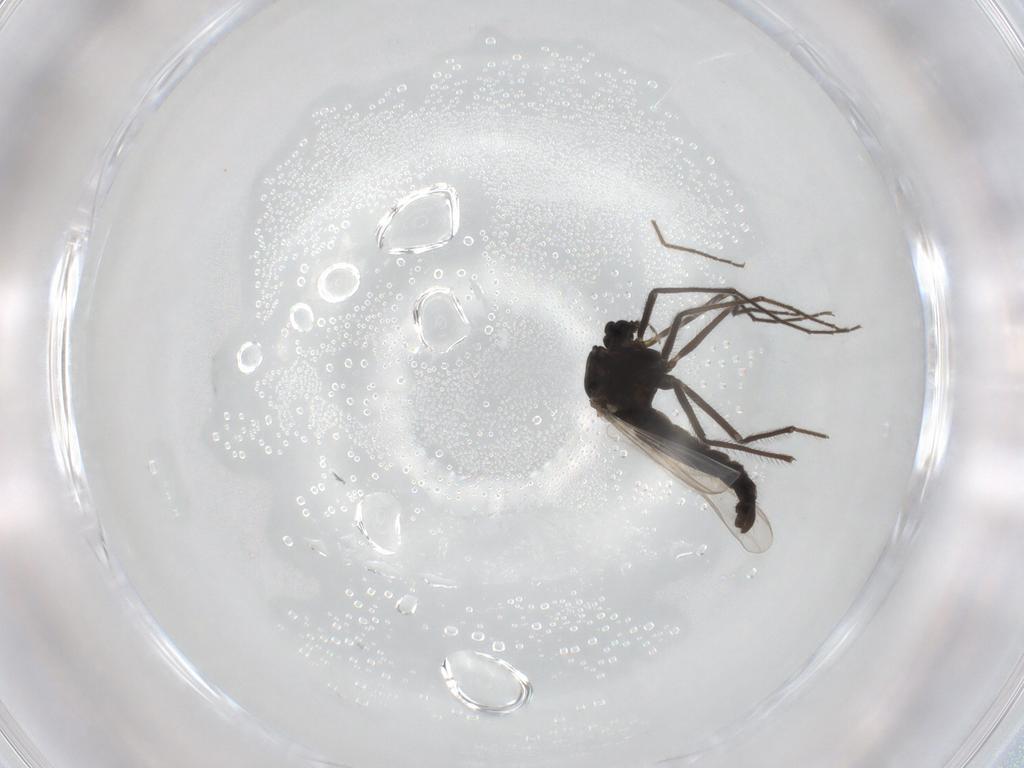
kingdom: Animalia
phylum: Arthropoda
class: Insecta
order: Diptera
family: Chironomidae
